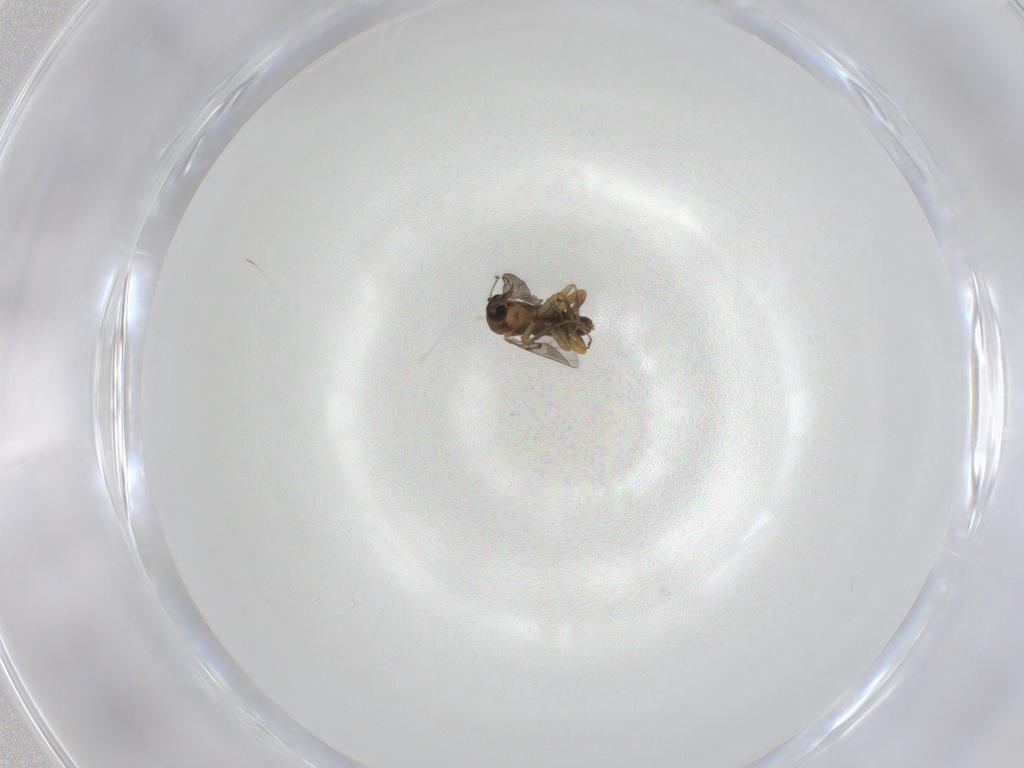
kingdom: Animalia
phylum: Arthropoda
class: Insecta
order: Diptera
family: Ceratopogonidae
